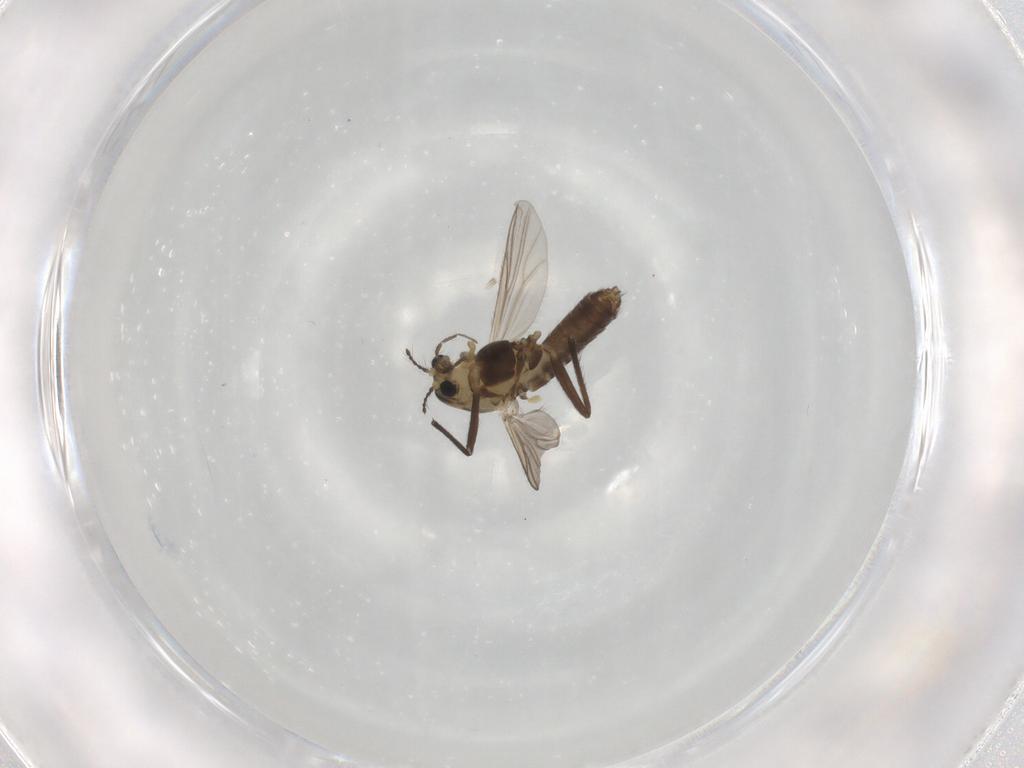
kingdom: Animalia
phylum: Arthropoda
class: Insecta
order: Diptera
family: Chironomidae
